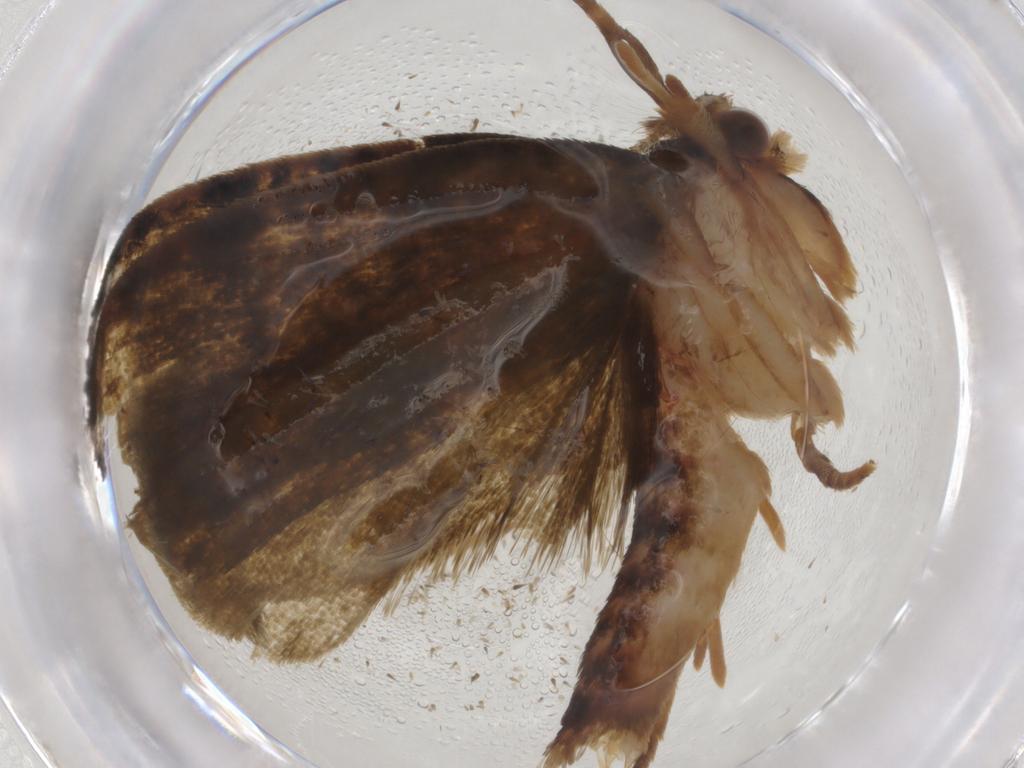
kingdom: Animalia
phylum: Arthropoda
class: Insecta
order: Lepidoptera
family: Geometridae
